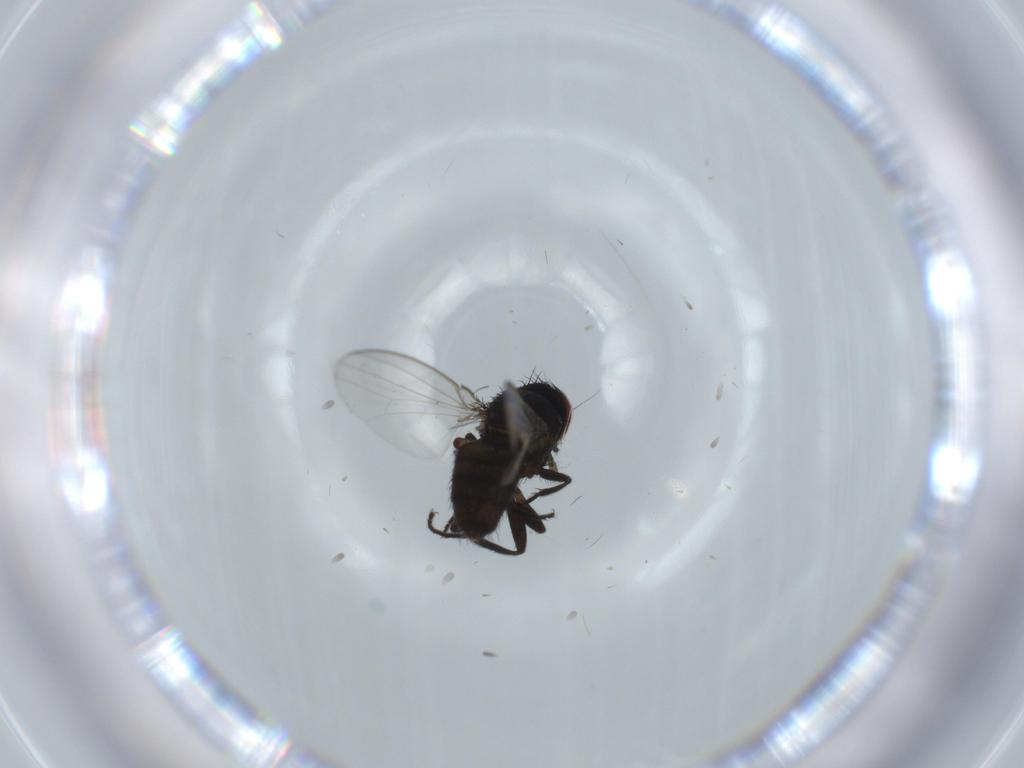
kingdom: Animalia
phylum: Arthropoda
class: Insecta
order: Diptera
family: Milichiidae
